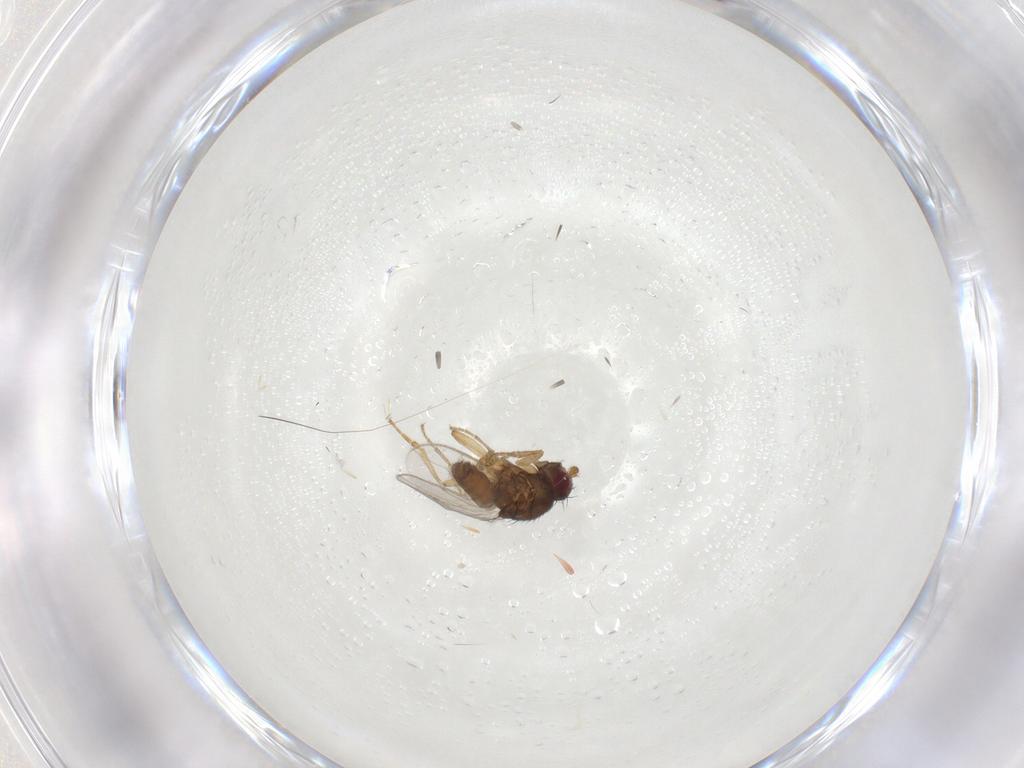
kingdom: Animalia
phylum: Arthropoda
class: Insecta
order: Diptera
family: Sphaeroceridae
